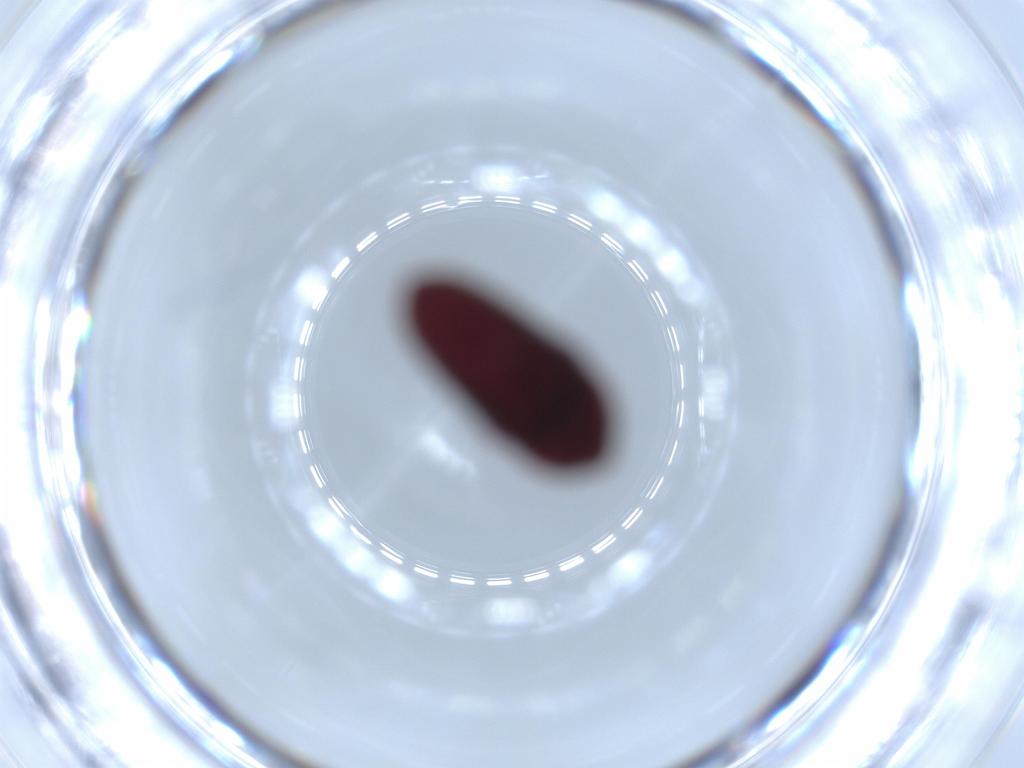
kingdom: Animalia
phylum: Arthropoda
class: Insecta
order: Coleoptera
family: Throscidae
